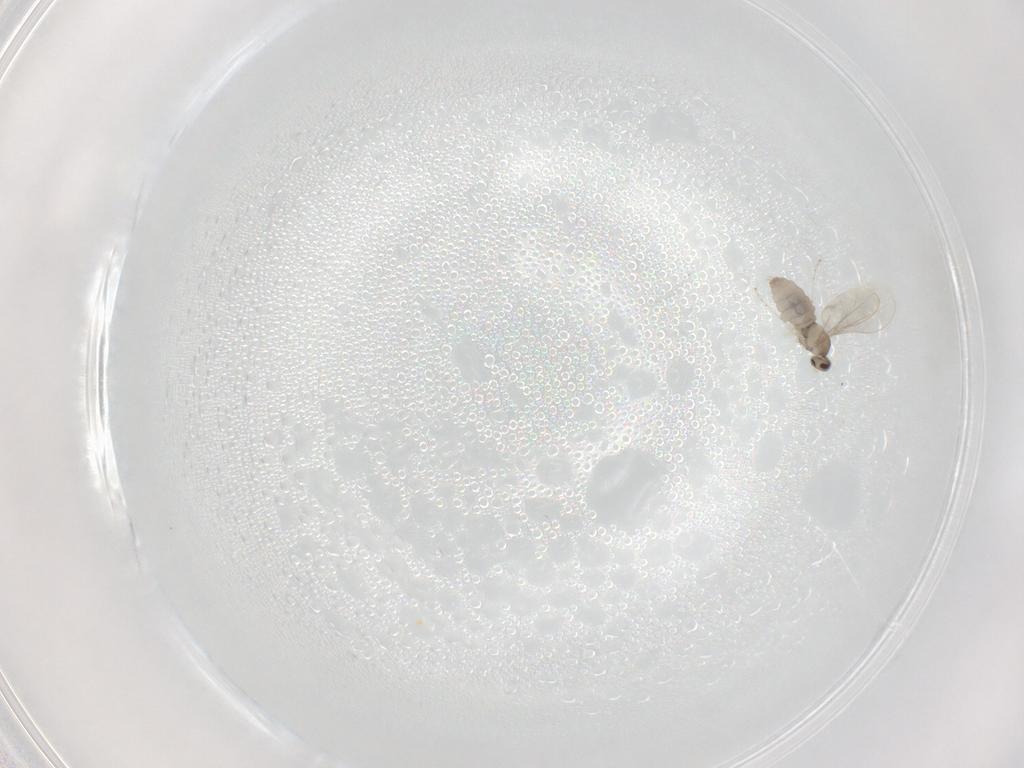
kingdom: Animalia
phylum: Arthropoda
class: Insecta
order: Diptera
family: Cecidomyiidae
